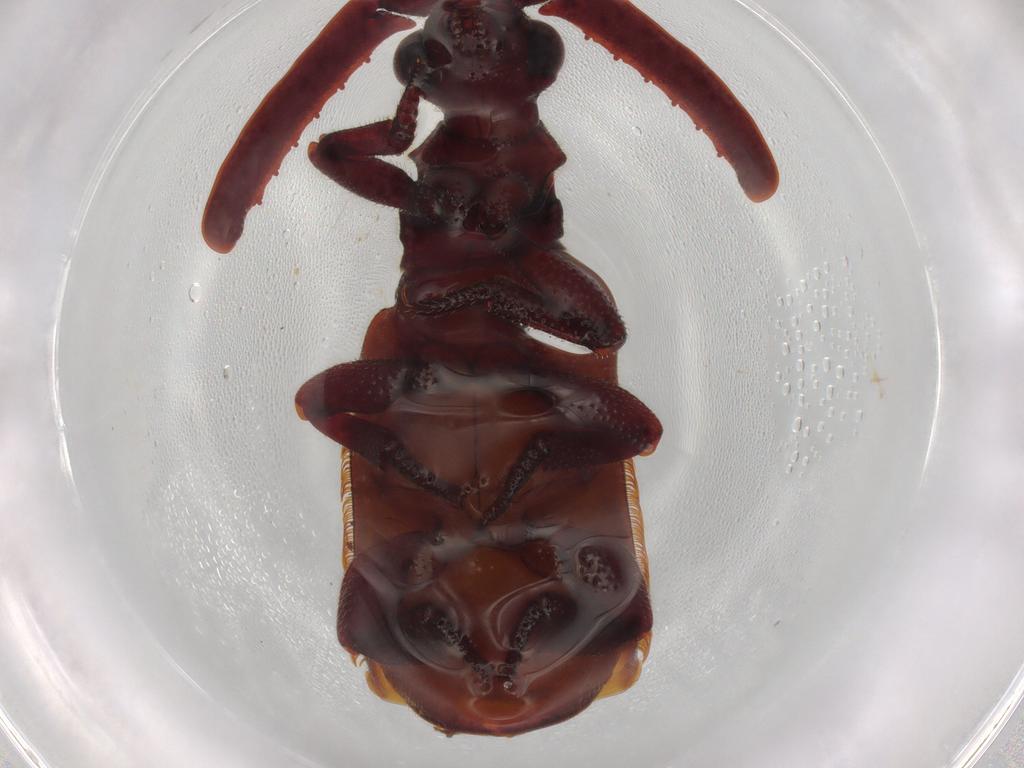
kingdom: Animalia
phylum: Arthropoda
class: Insecta
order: Coleoptera
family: Carabidae
